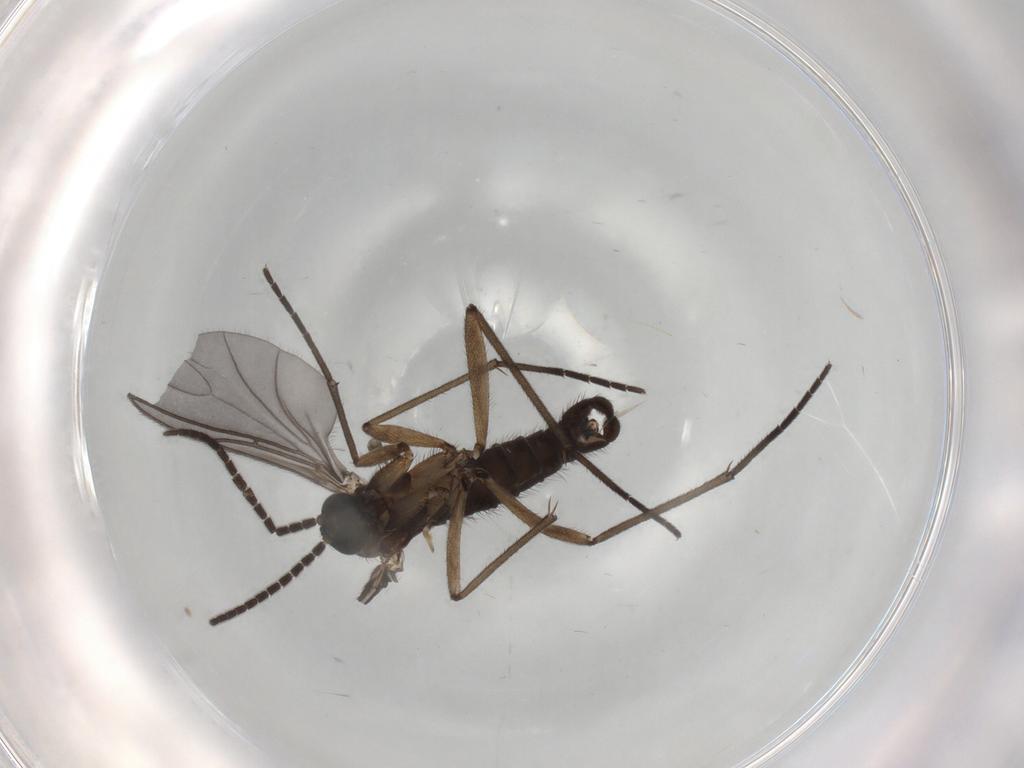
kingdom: Animalia
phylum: Arthropoda
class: Insecta
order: Diptera
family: Sciaridae
